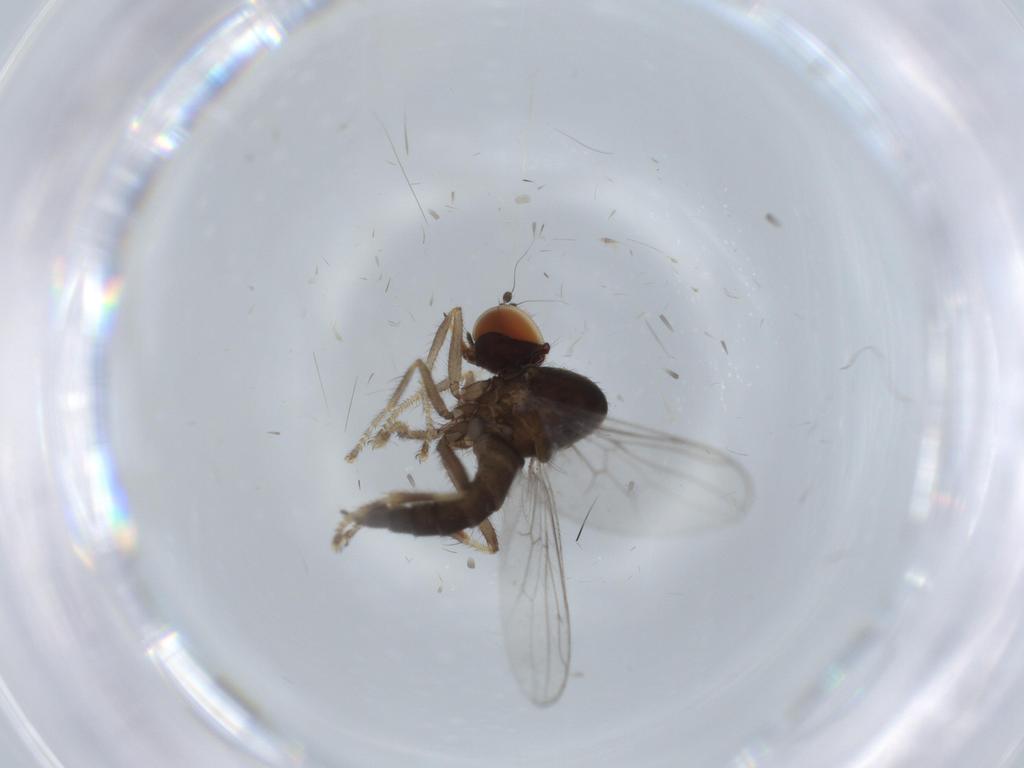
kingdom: Animalia
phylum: Arthropoda
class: Insecta
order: Diptera
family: Hybotidae
